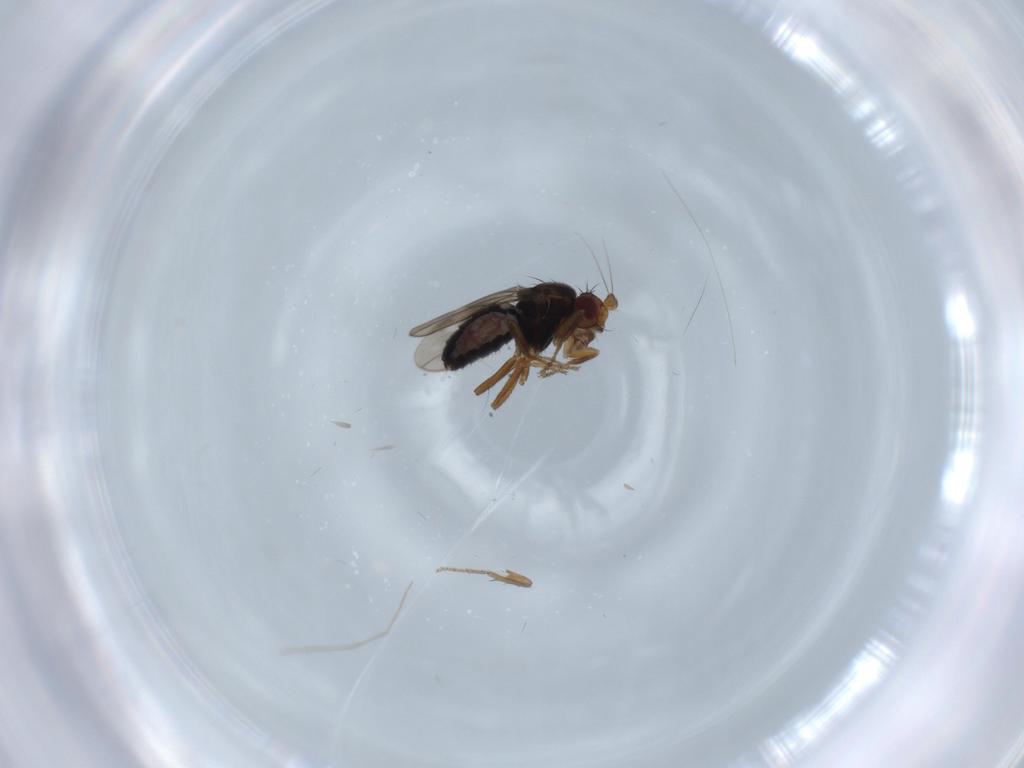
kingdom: Animalia
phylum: Arthropoda
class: Insecta
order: Diptera
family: Sphaeroceridae
